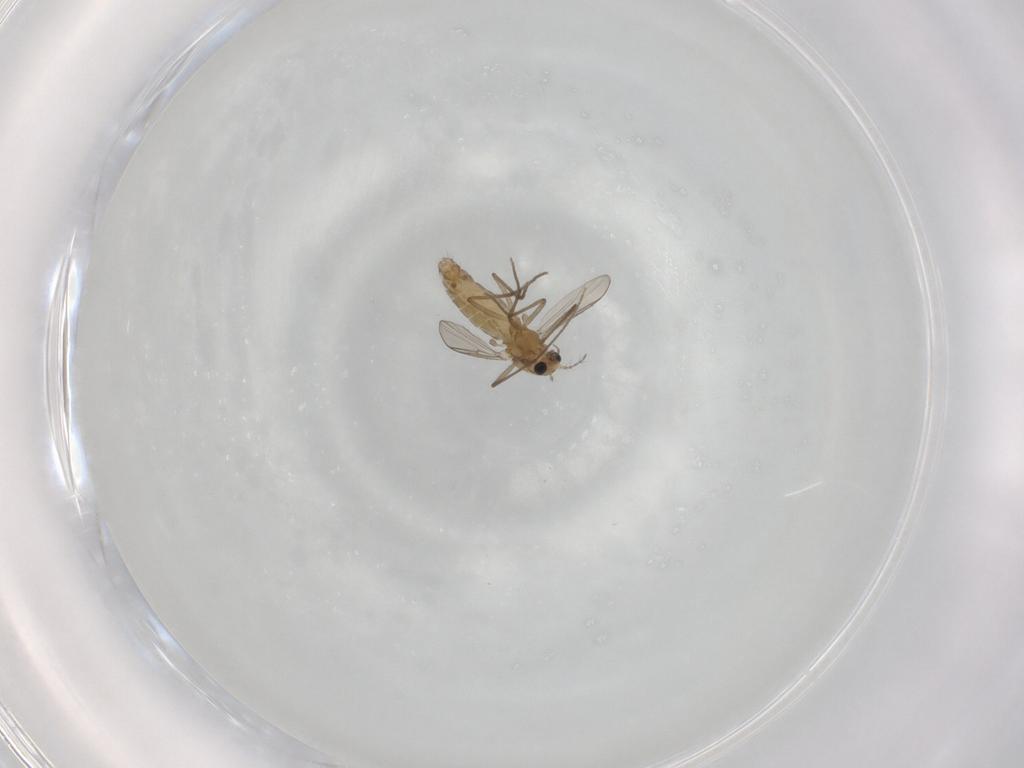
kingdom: Animalia
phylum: Arthropoda
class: Insecta
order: Diptera
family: Chironomidae
